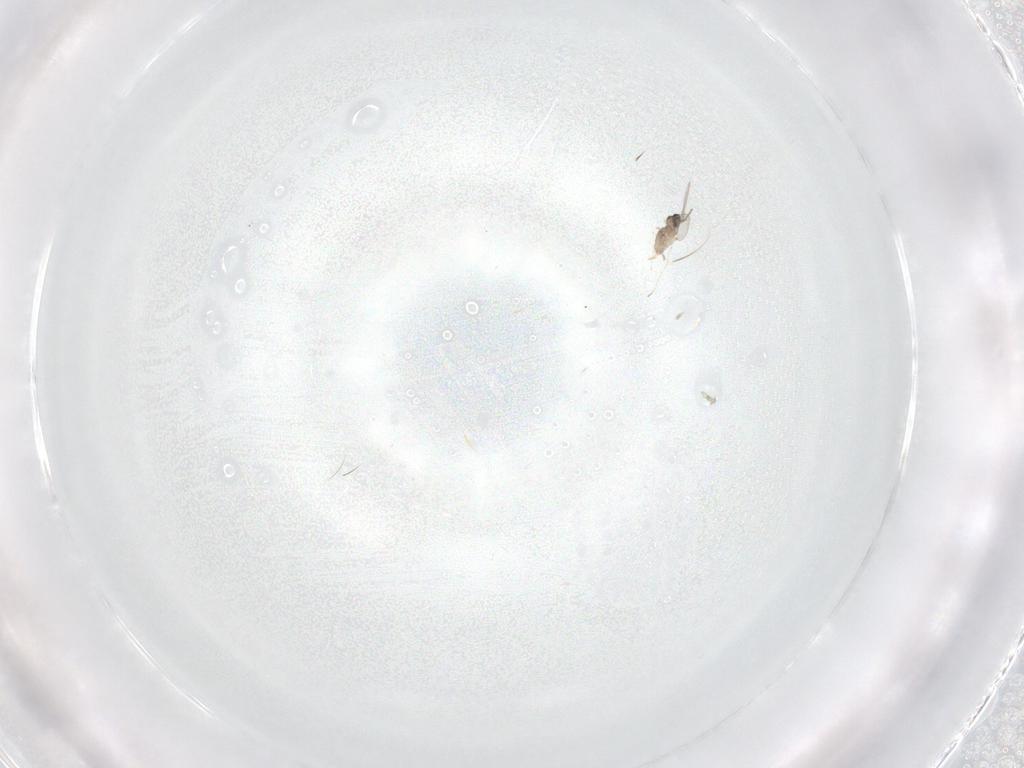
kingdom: Animalia
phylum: Arthropoda
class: Insecta
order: Diptera
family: Cecidomyiidae
